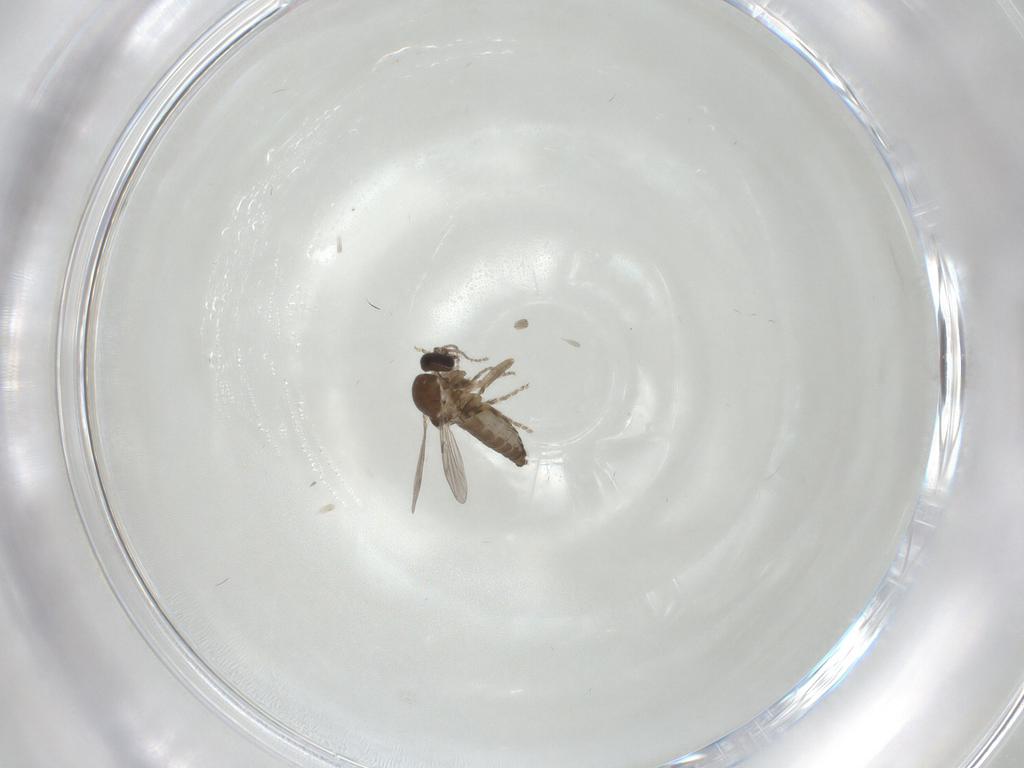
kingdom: Animalia
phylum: Arthropoda
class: Insecta
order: Diptera
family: Ceratopogonidae
